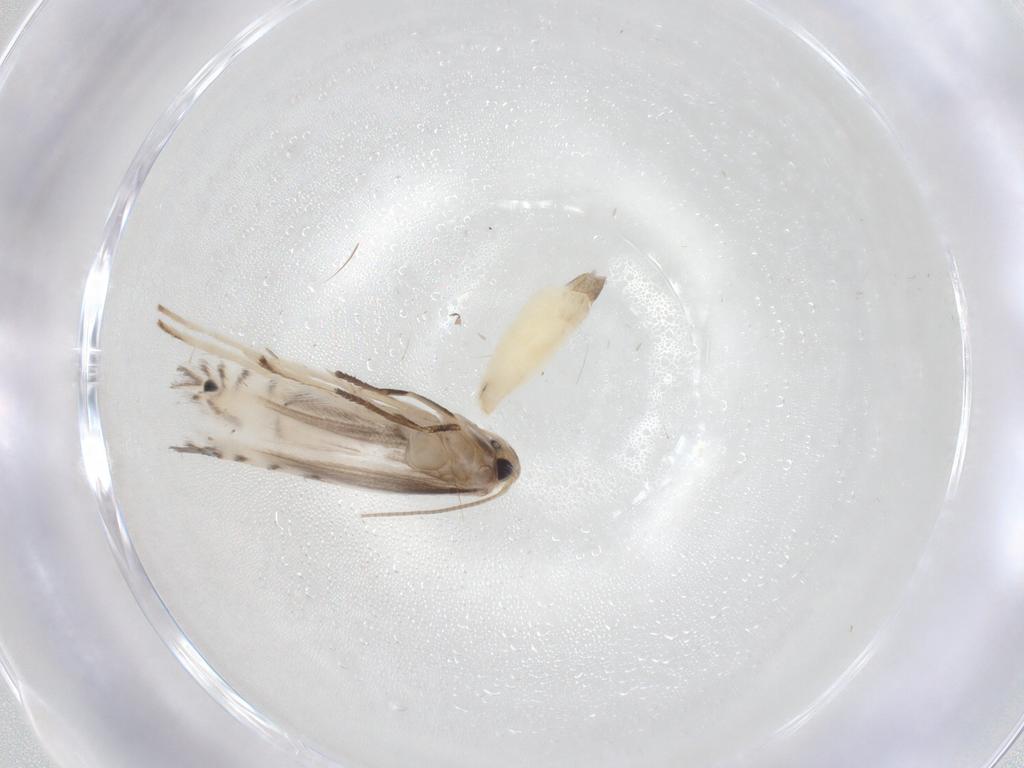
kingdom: Animalia
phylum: Arthropoda
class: Insecta
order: Lepidoptera
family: Gracillariidae
